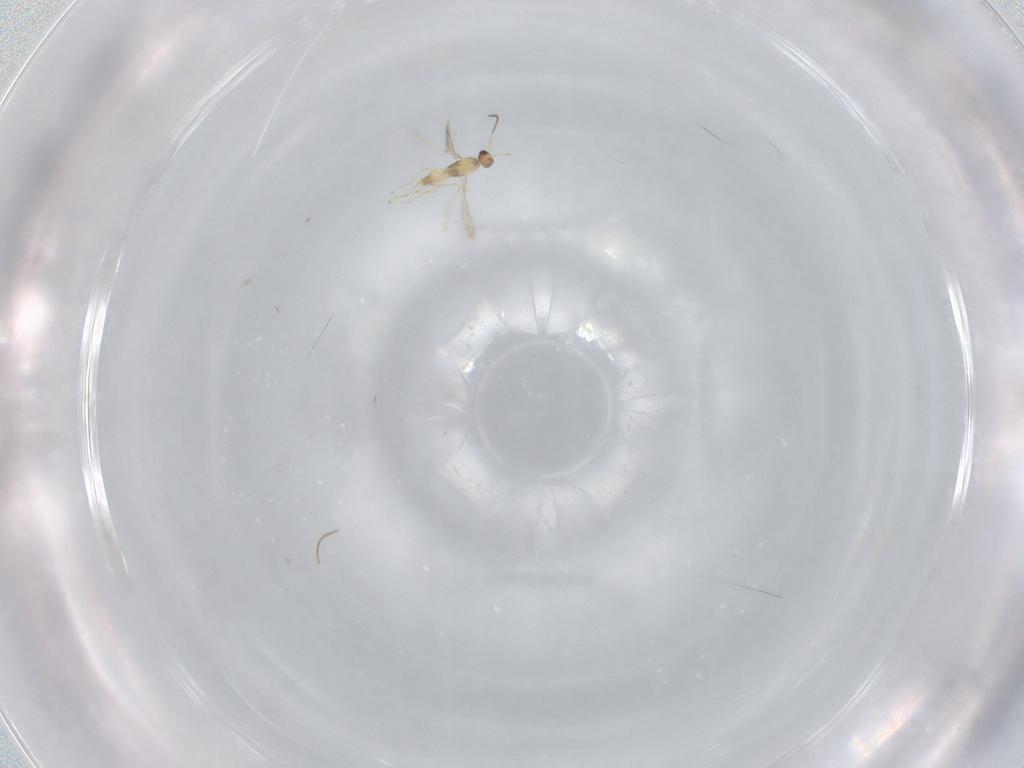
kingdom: Animalia
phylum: Arthropoda
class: Insecta
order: Hymenoptera
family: Mymaridae
